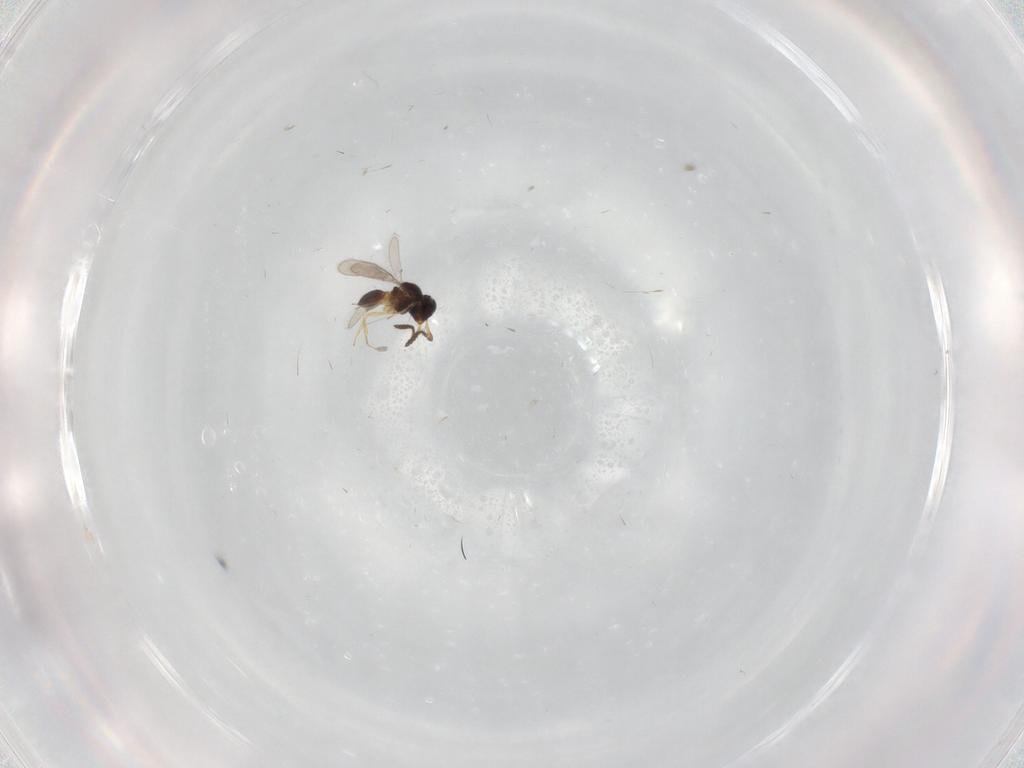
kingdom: Animalia
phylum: Arthropoda
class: Insecta
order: Hymenoptera
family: Scelionidae
